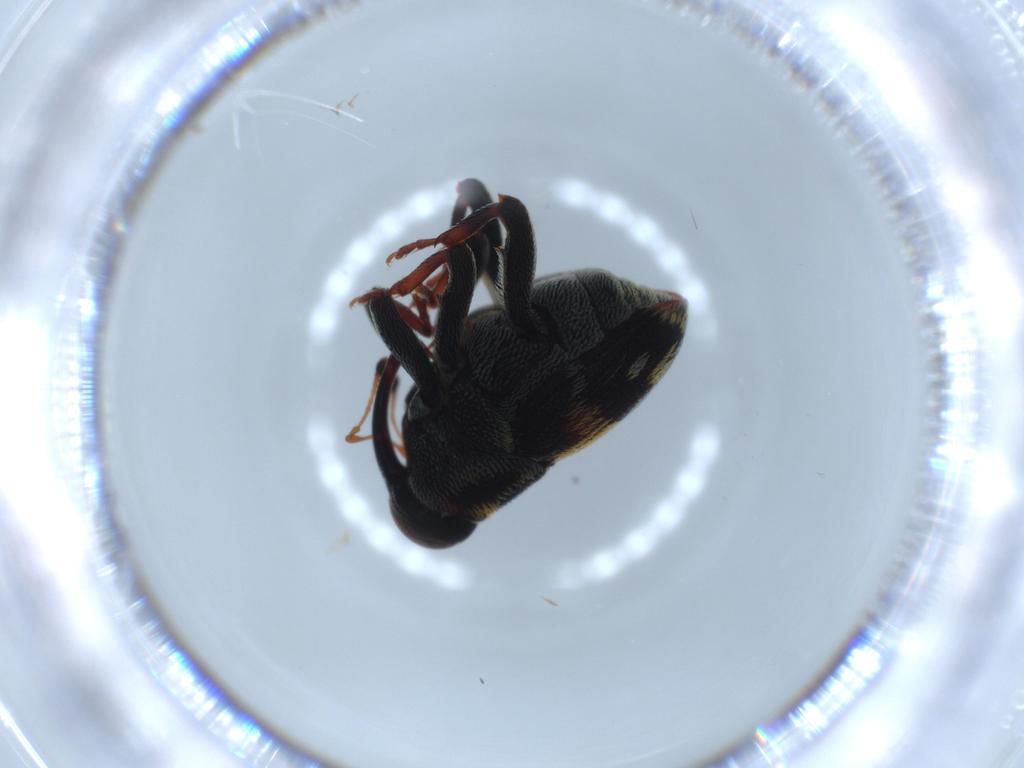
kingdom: Animalia
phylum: Arthropoda
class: Insecta
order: Coleoptera
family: Curculionidae
